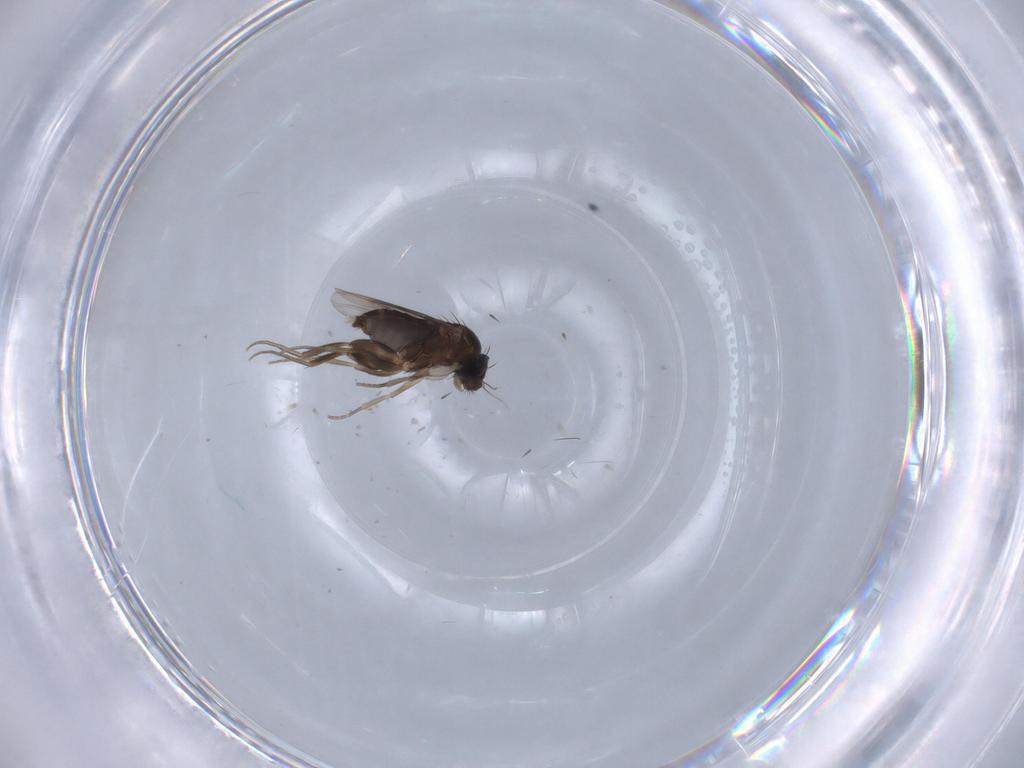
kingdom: Animalia
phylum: Arthropoda
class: Insecta
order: Diptera
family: Phoridae
